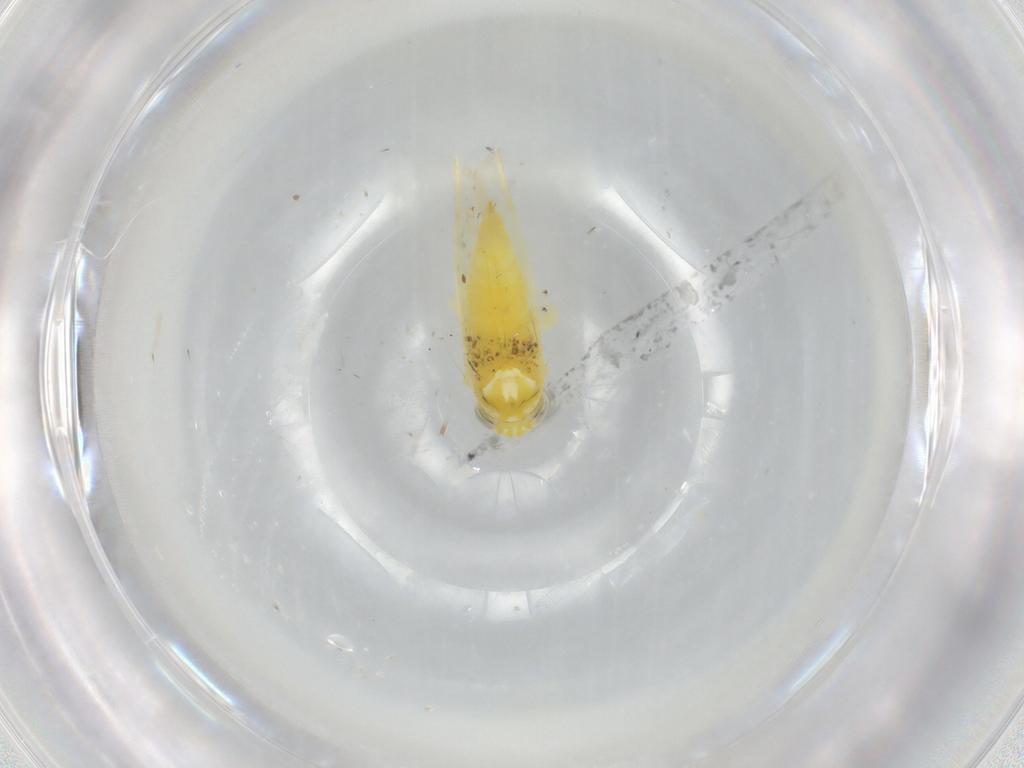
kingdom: Animalia
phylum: Arthropoda
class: Insecta
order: Hemiptera
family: Cicadellidae
